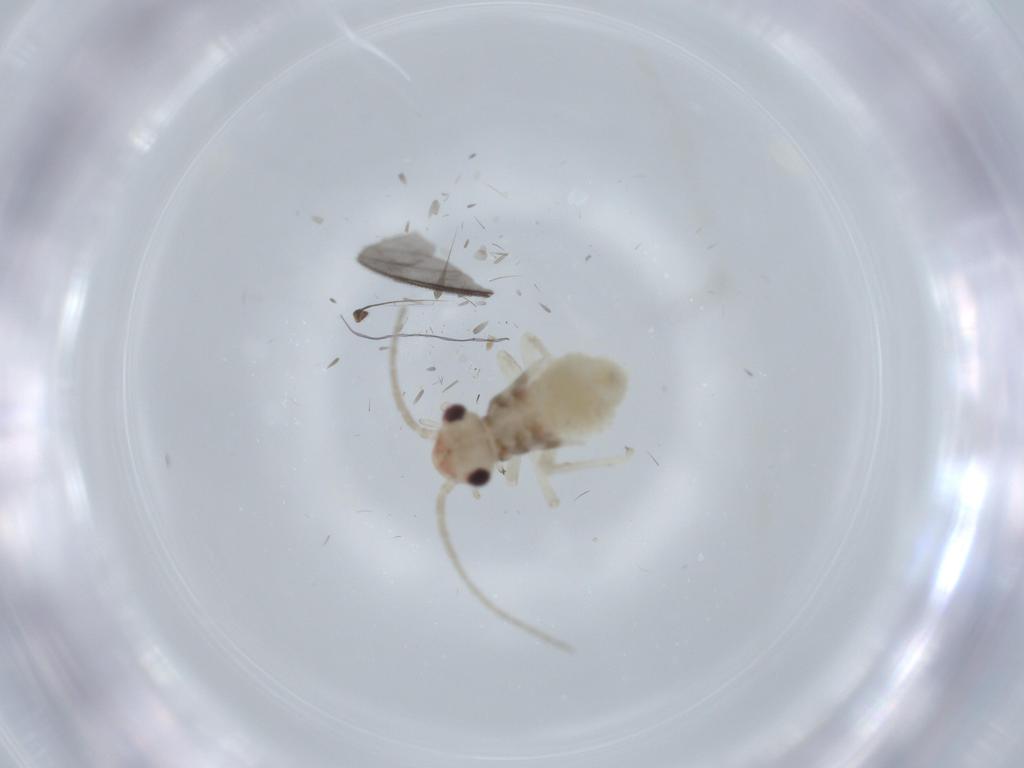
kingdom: Animalia
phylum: Arthropoda
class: Insecta
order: Psocodea
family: Amphipsocidae
